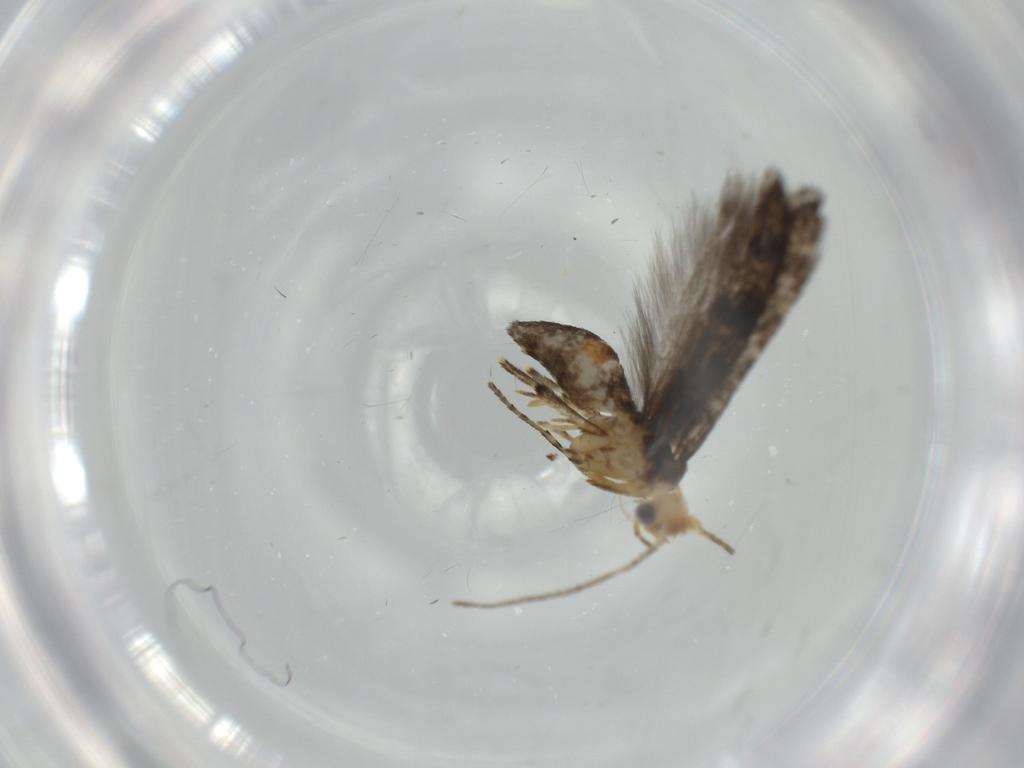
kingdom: Animalia
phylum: Arthropoda
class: Insecta
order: Lepidoptera
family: Argyresthiidae
